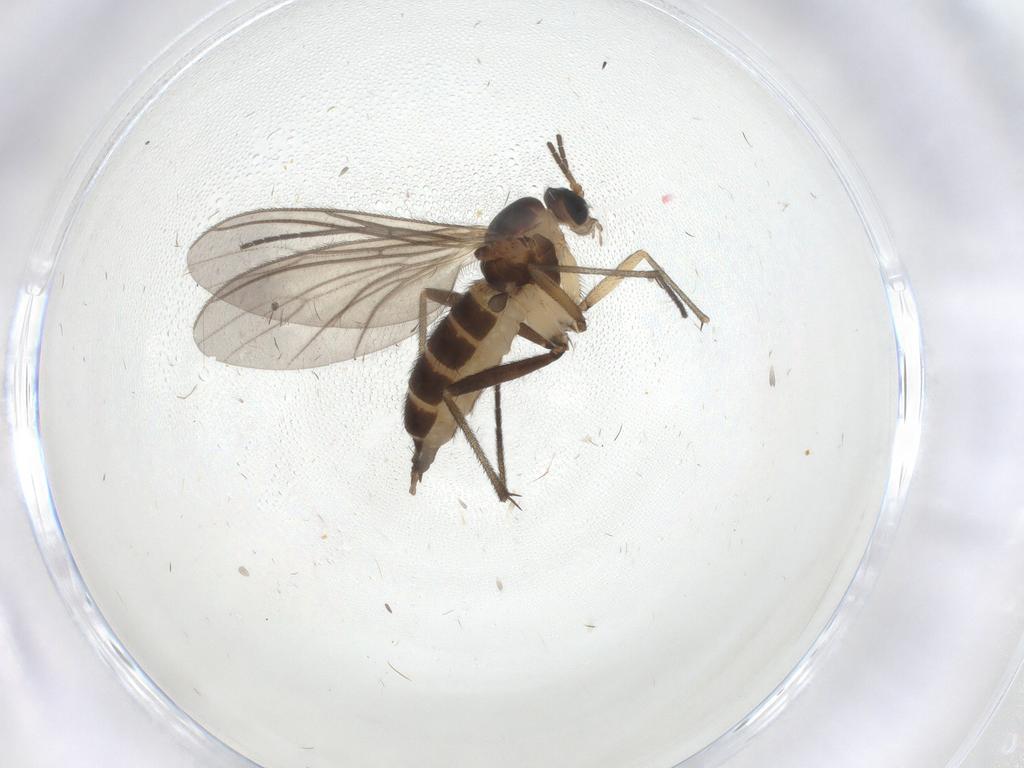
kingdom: Animalia
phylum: Arthropoda
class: Insecta
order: Diptera
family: Sciaridae
